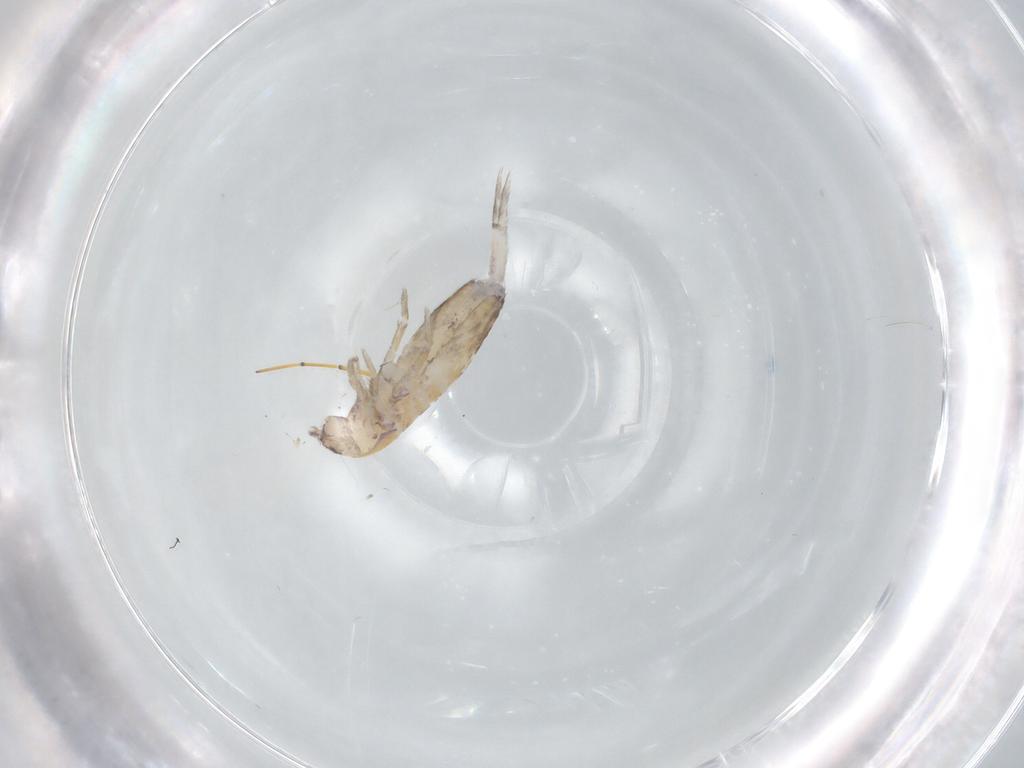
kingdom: Animalia
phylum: Arthropoda
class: Collembola
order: Entomobryomorpha
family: Entomobryidae
